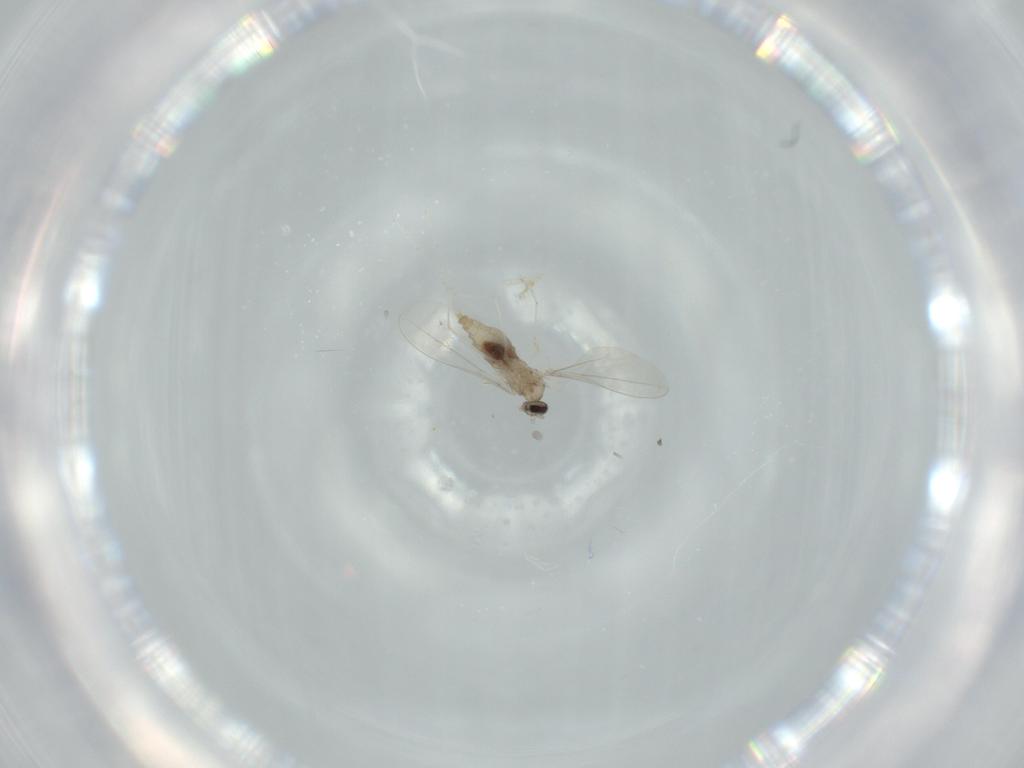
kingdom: Animalia
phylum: Arthropoda
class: Insecta
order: Diptera
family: Cecidomyiidae
